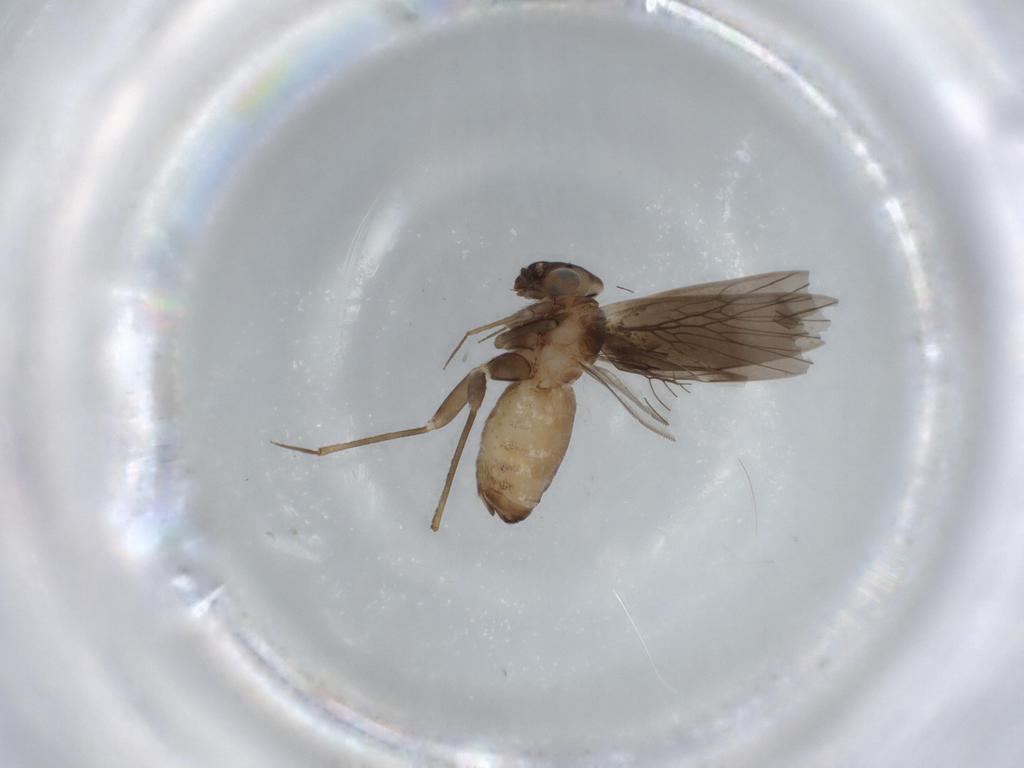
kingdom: Animalia
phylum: Arthropoda
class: Insecta
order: Psocodea
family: Lepidopsocidae
